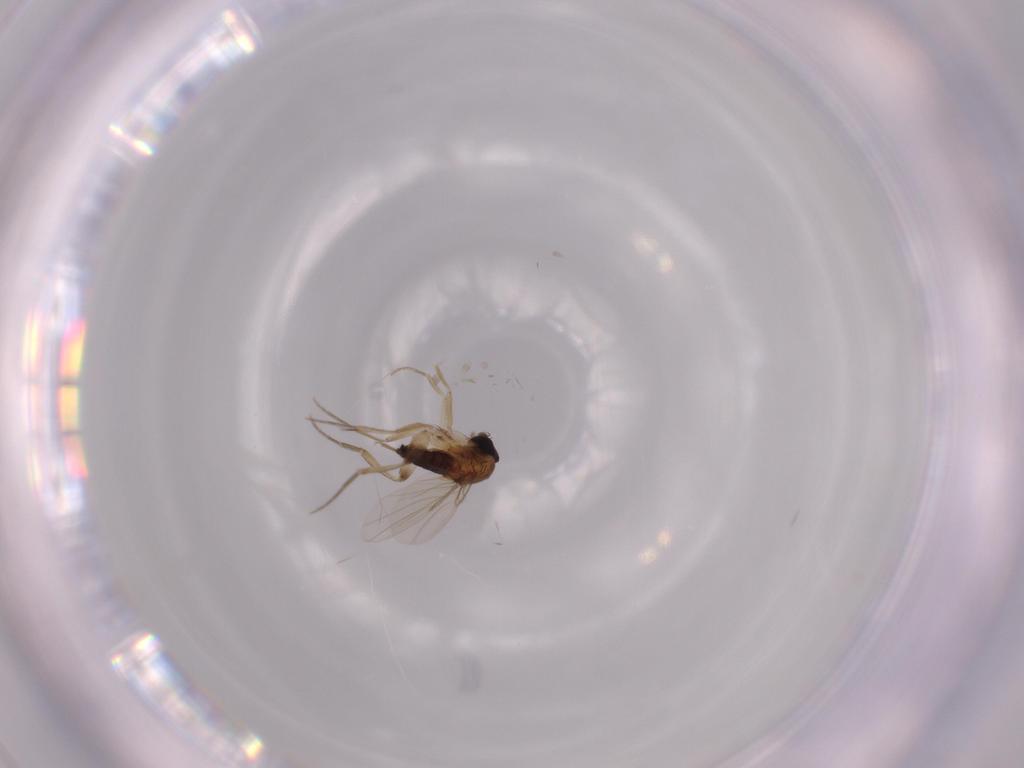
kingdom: Animalia
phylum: Arthropoda
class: Insecta
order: Diptera
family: Phoridae
